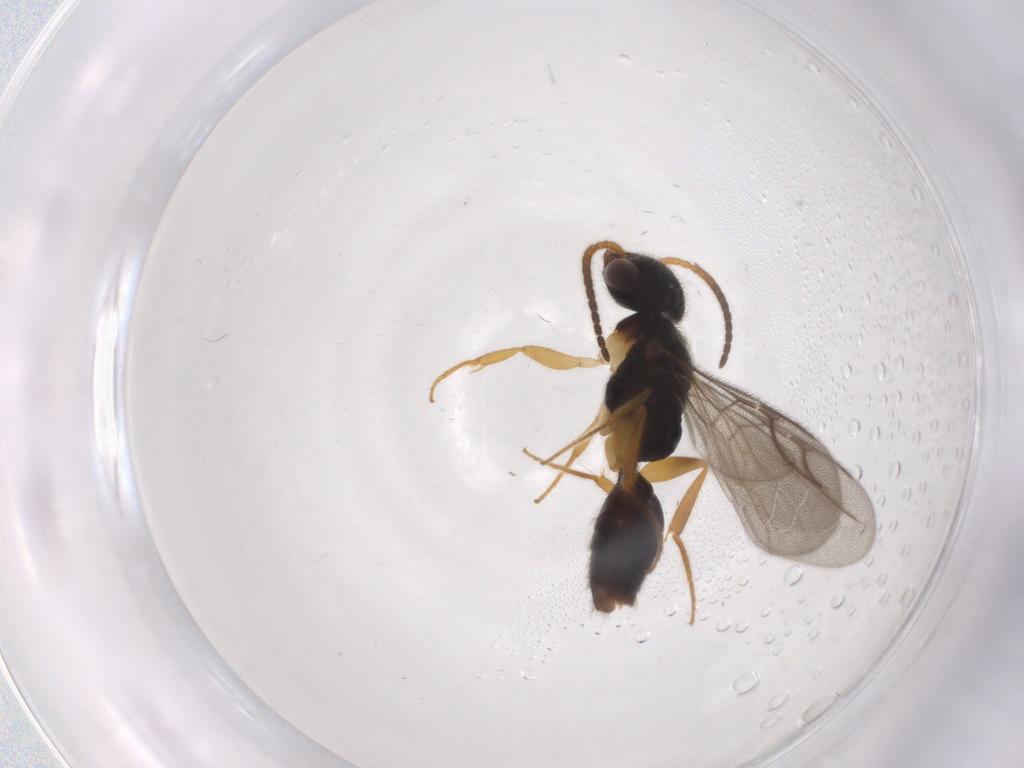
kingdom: Animalia
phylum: Arthropoda
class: Insecta
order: Hymenoptera
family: Bethylidae
